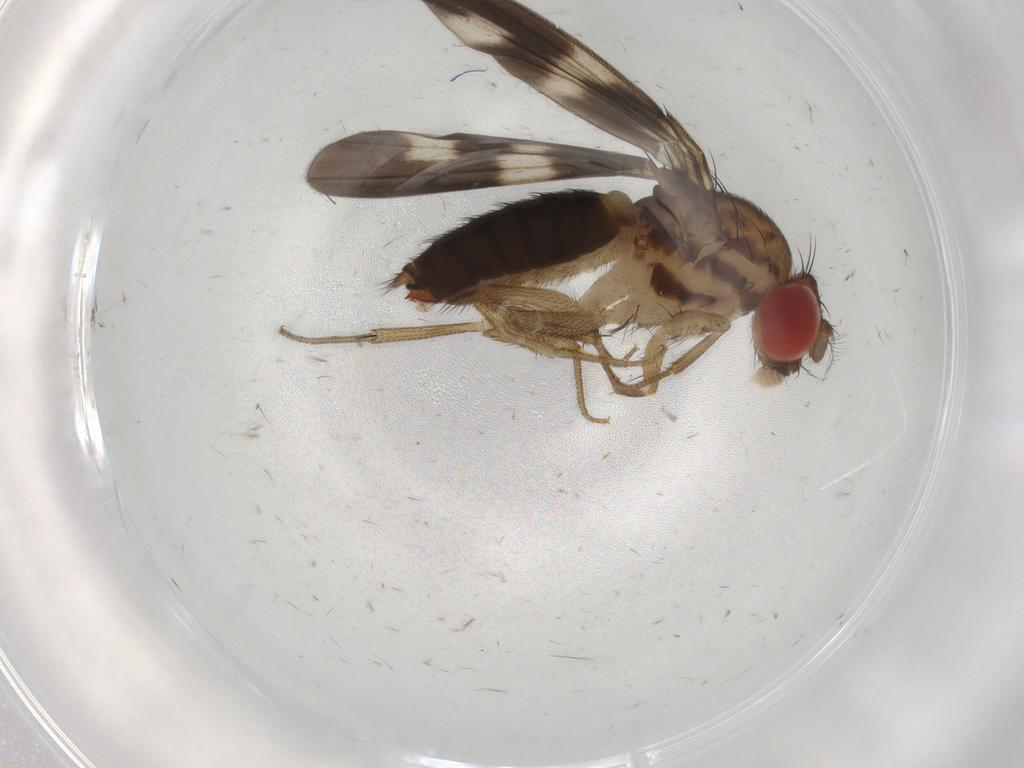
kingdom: Animalia
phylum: Arthropoda
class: Insecta
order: Diptera
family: Drosophilidae
